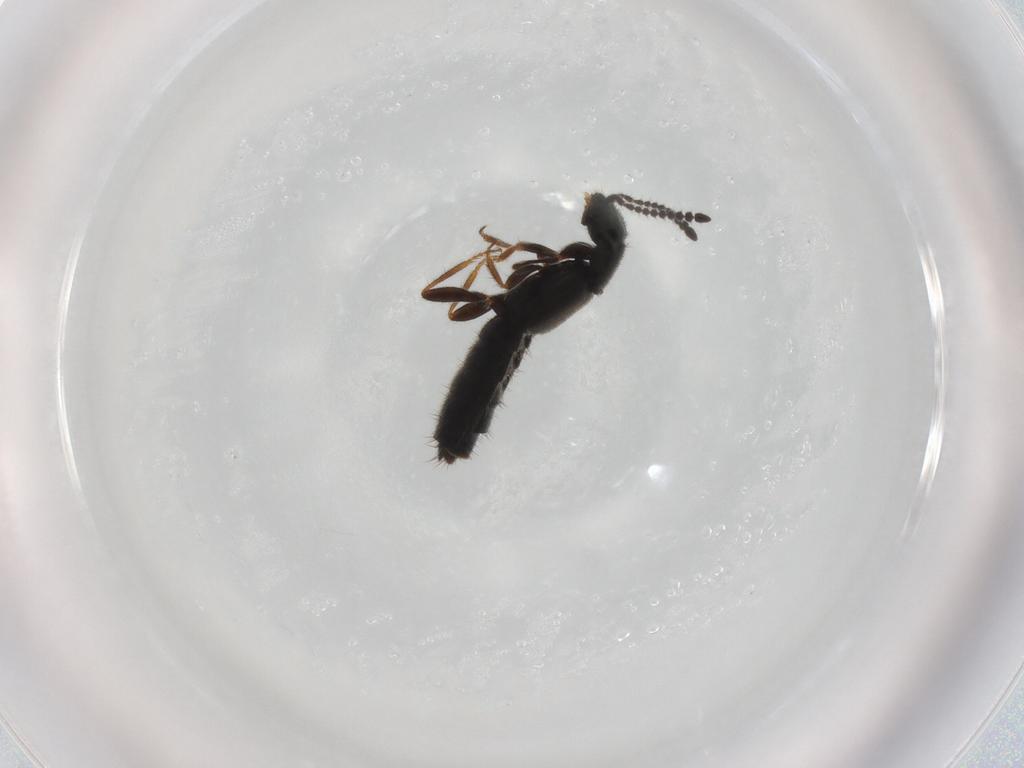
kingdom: Animalia
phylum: Arthropoda
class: Insecta
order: Coleoptera
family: Staphylinidae
